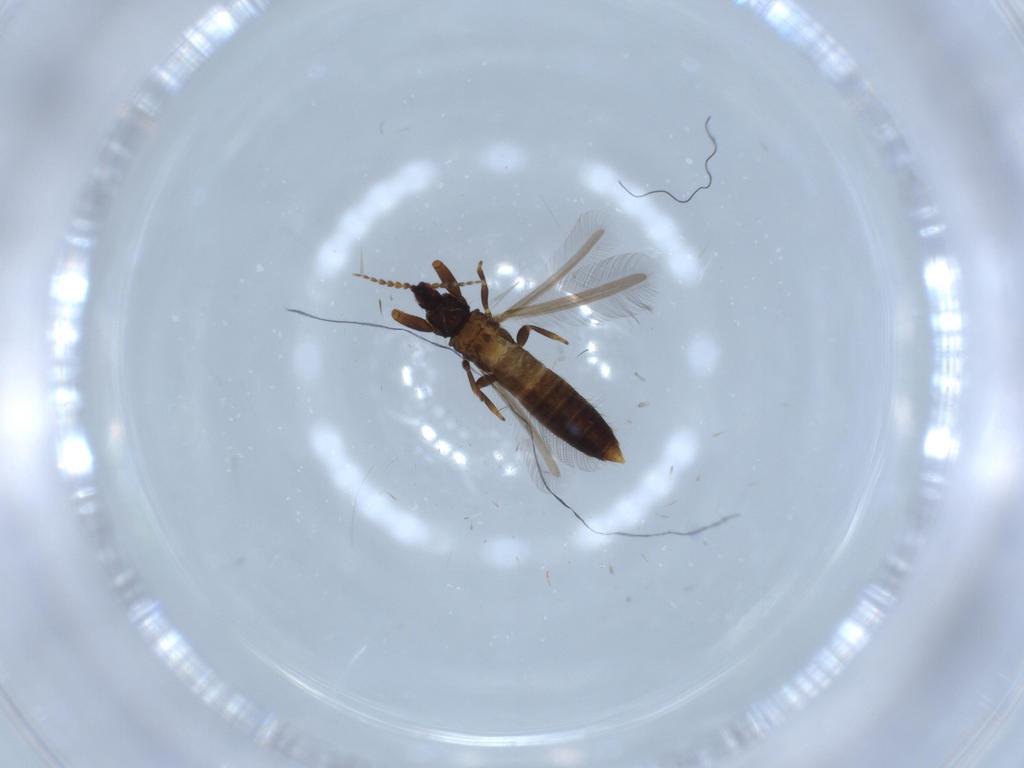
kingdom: Animalia
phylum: Arthropoda
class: Insecta
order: Thysanoptera
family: Phlaeothripidae
